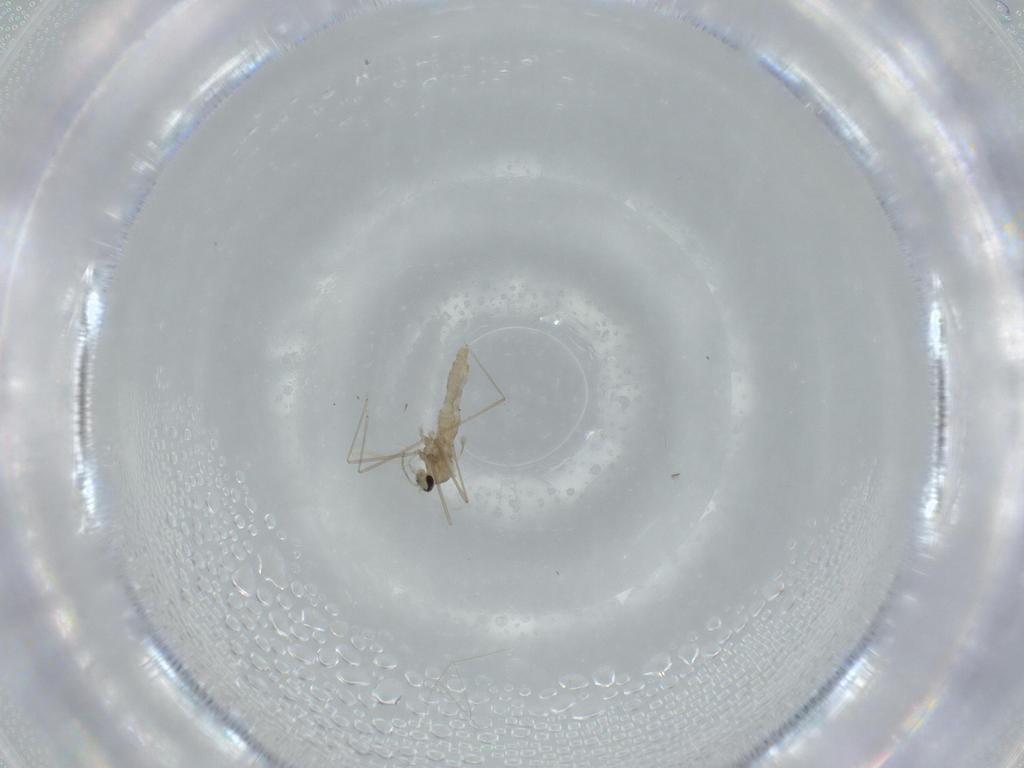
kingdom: Animalia
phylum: Arthropoda
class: Insecta
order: Diptera
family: Cecidomyiidae
